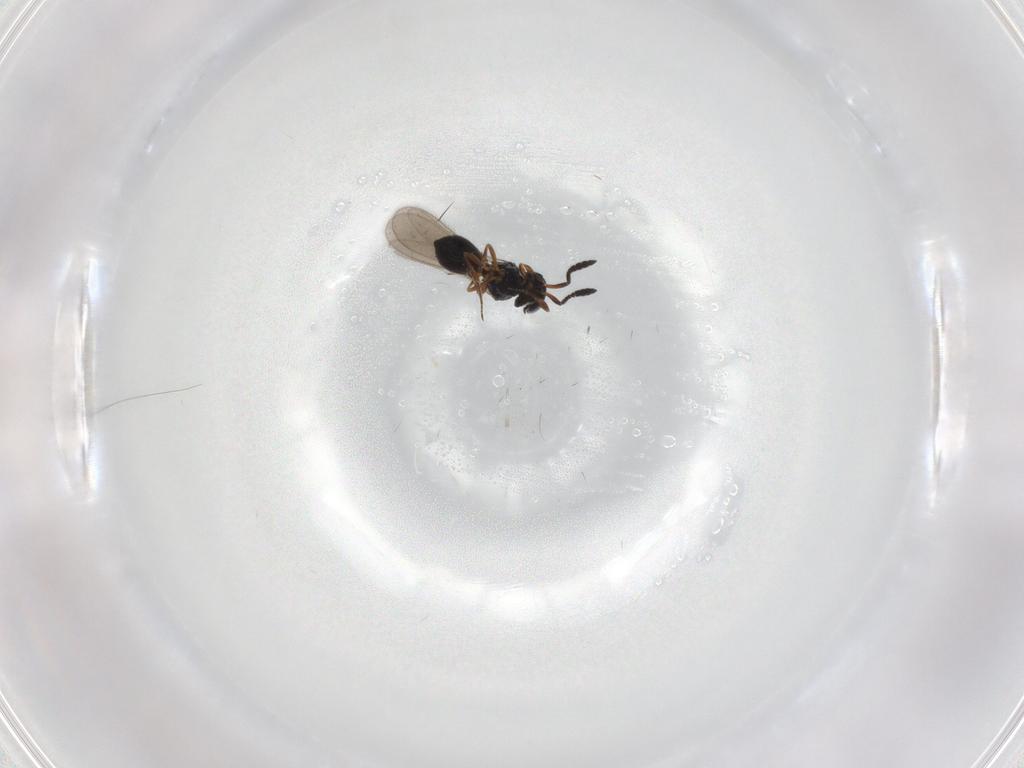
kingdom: Animalia
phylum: Arthropoda
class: Insecta
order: Hymenoptera
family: Scelionidae
